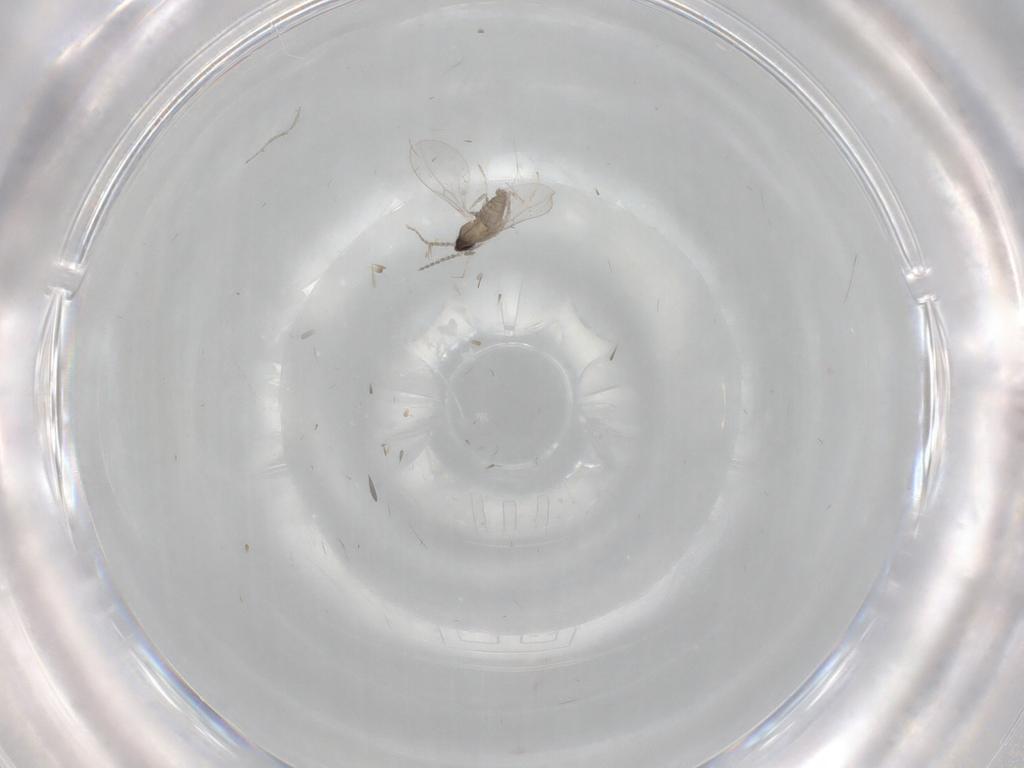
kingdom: Animalia
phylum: Arthropoda
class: Insecta
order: Diptera
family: Cecidomyiidae
